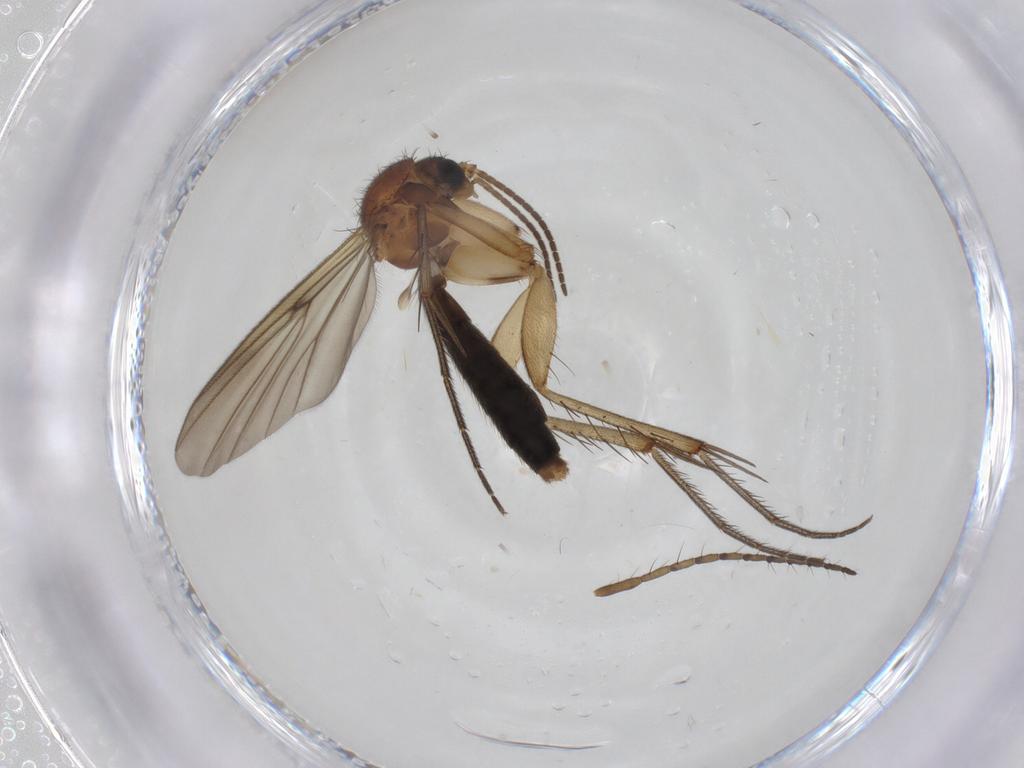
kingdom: Animalia
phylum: Arthropoda
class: Insecta
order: Diptera
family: Mycetophilidae
